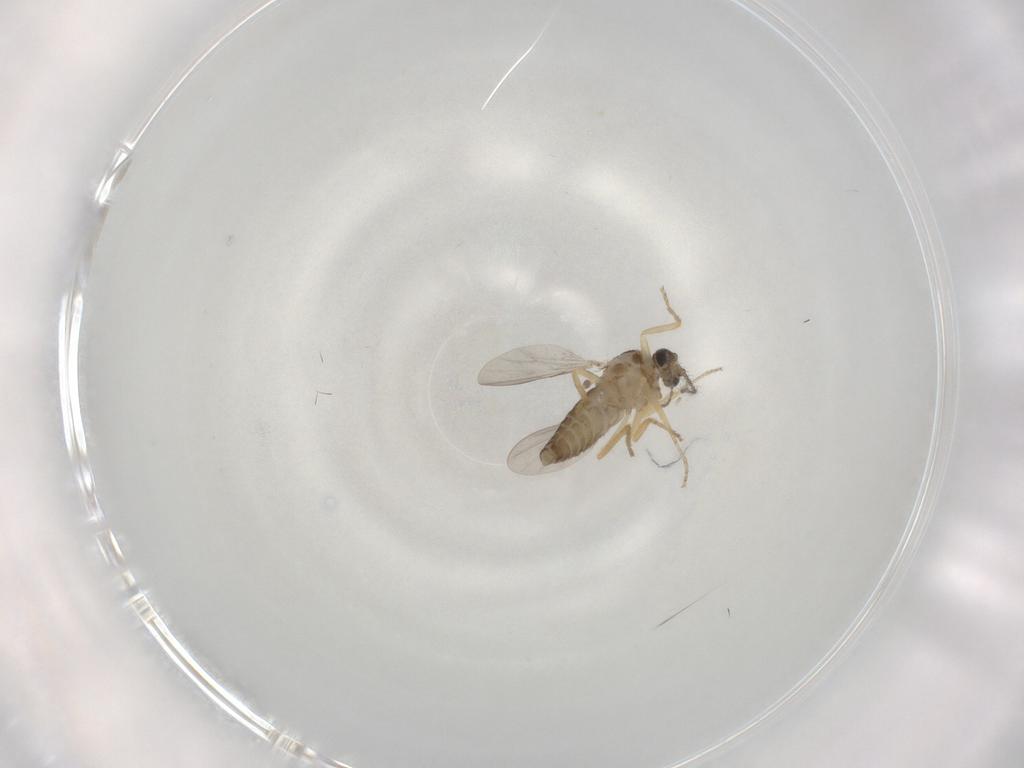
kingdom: Animalia
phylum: Arthropoda
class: Insecta
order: Diptera
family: Ceratopogonidae
